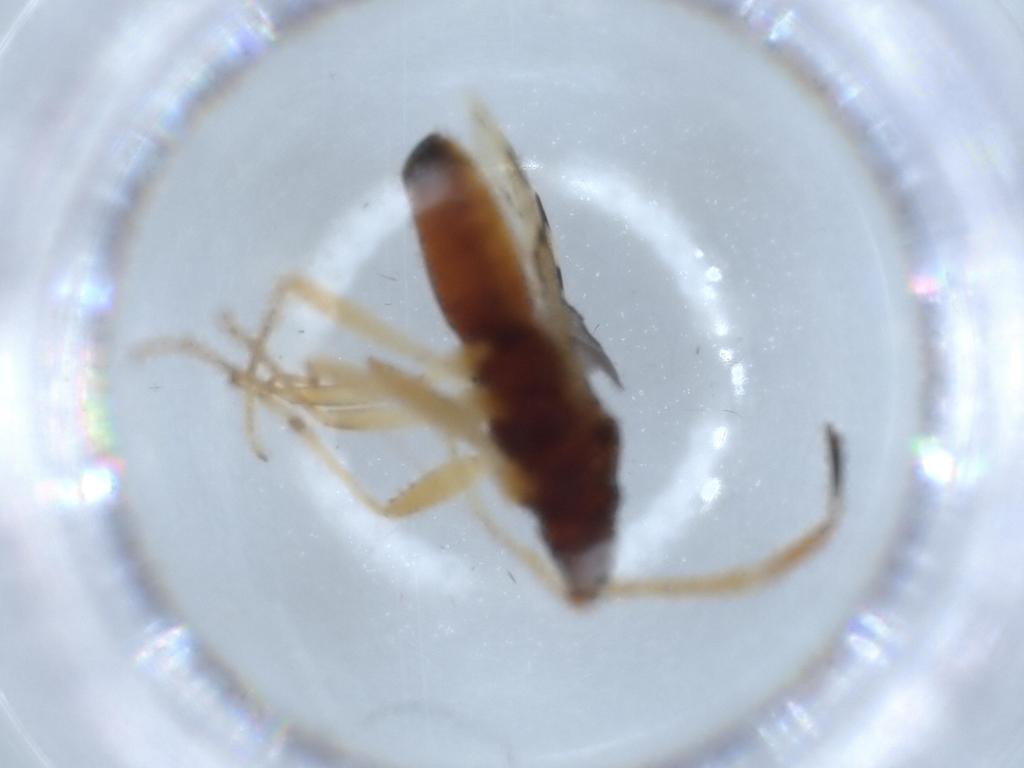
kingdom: Animalia
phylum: Arthropoda
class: Insecta
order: Hemiptera
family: Rhyparochromidae
